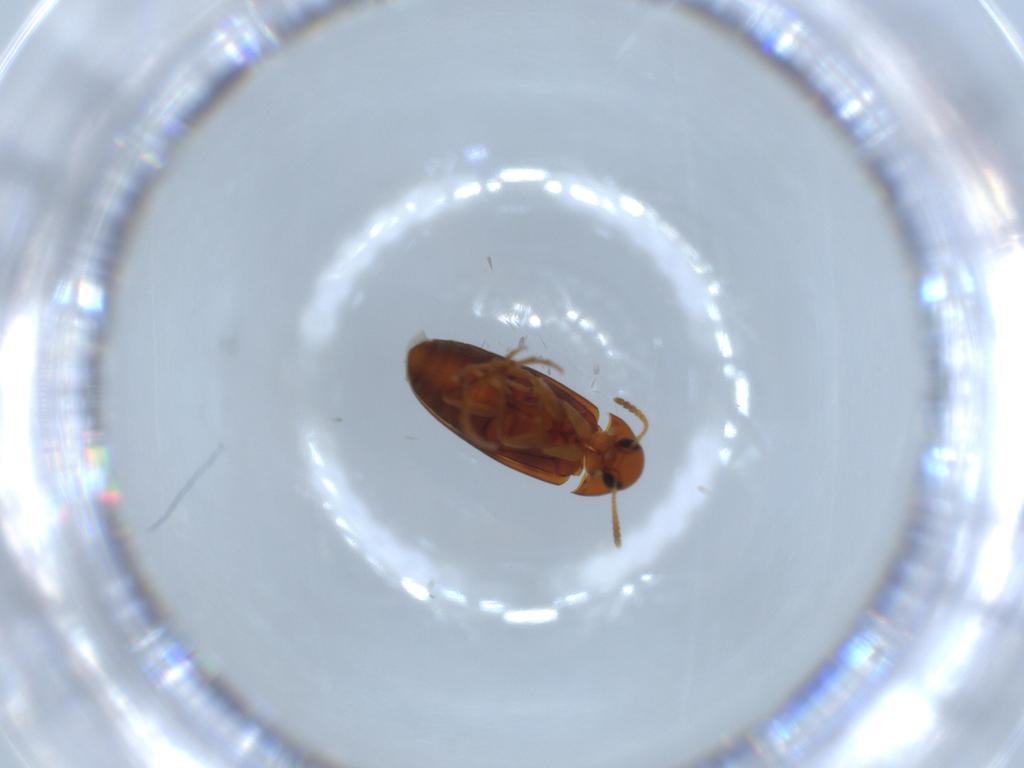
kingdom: Animalia
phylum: Arthropoda
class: Insecta
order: Coleoptera
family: Scraptiidae
